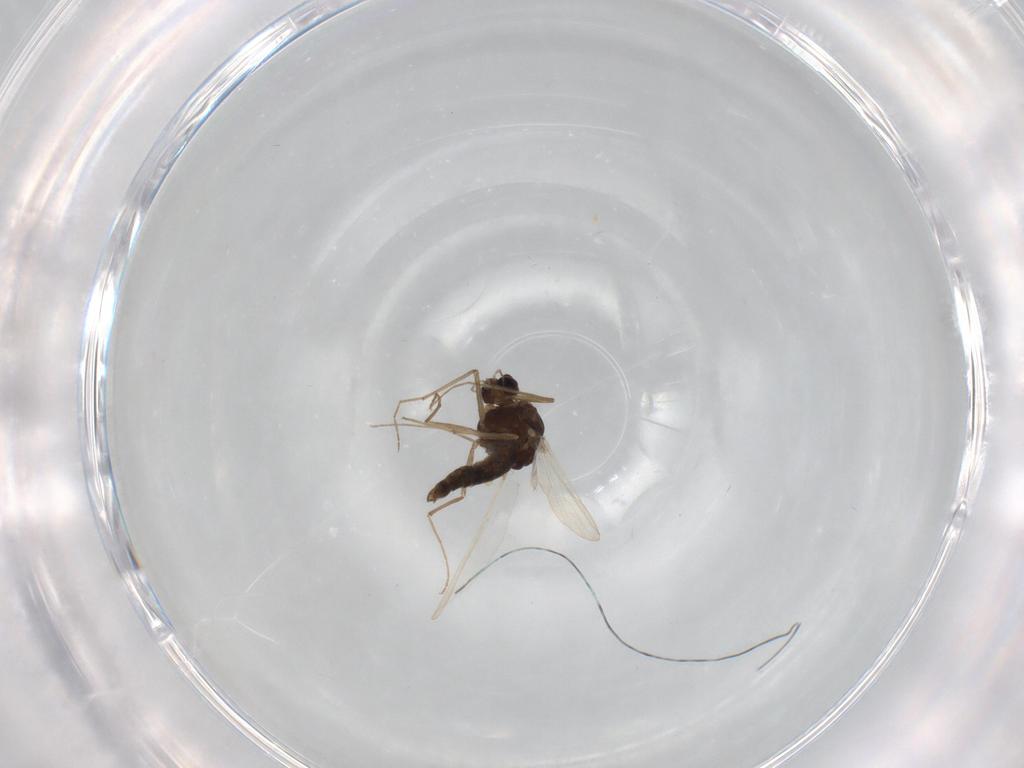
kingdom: Animalia
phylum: Arthropoda
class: Insecta
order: Diptera
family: Chironomidae
